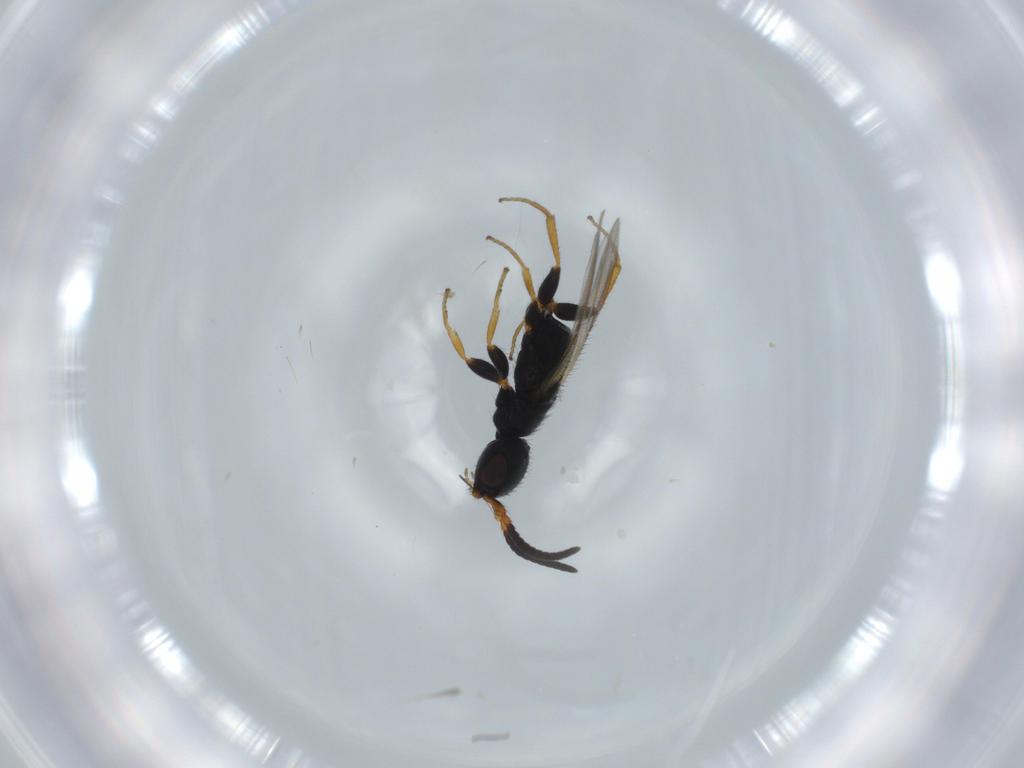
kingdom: Animalia
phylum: Arthropoda
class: Insecta
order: Hymenoptera
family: Bethylidae
